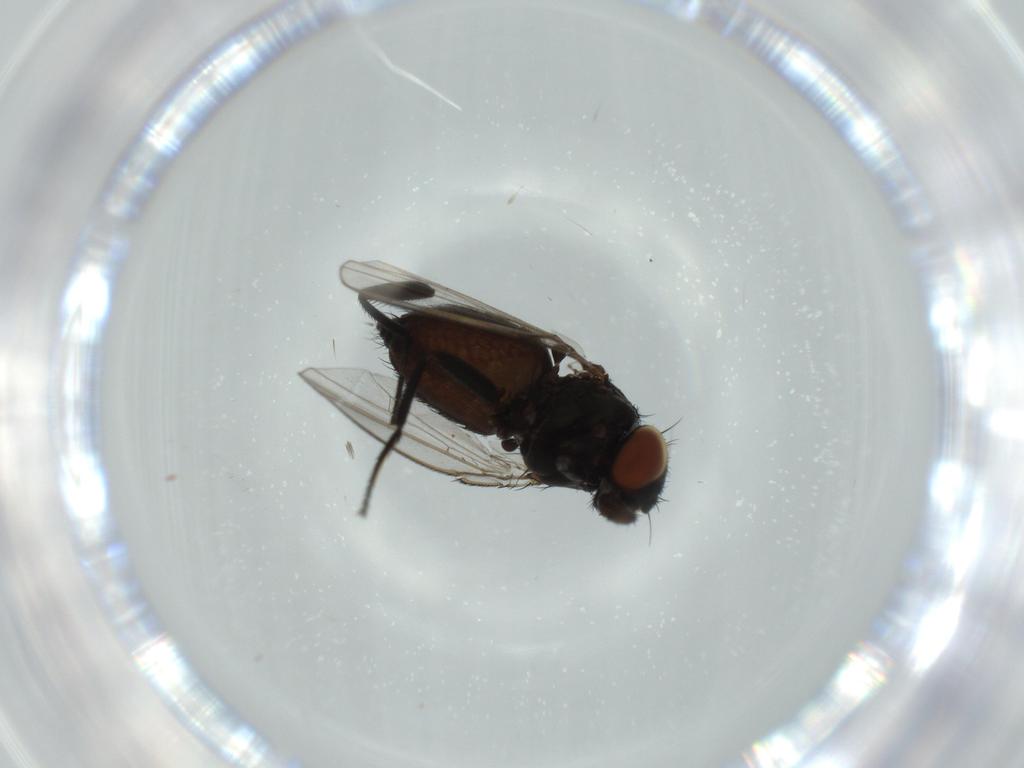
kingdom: Animalia
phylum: Arthropoda
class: Insecta
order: Diptera
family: Milichiidae
